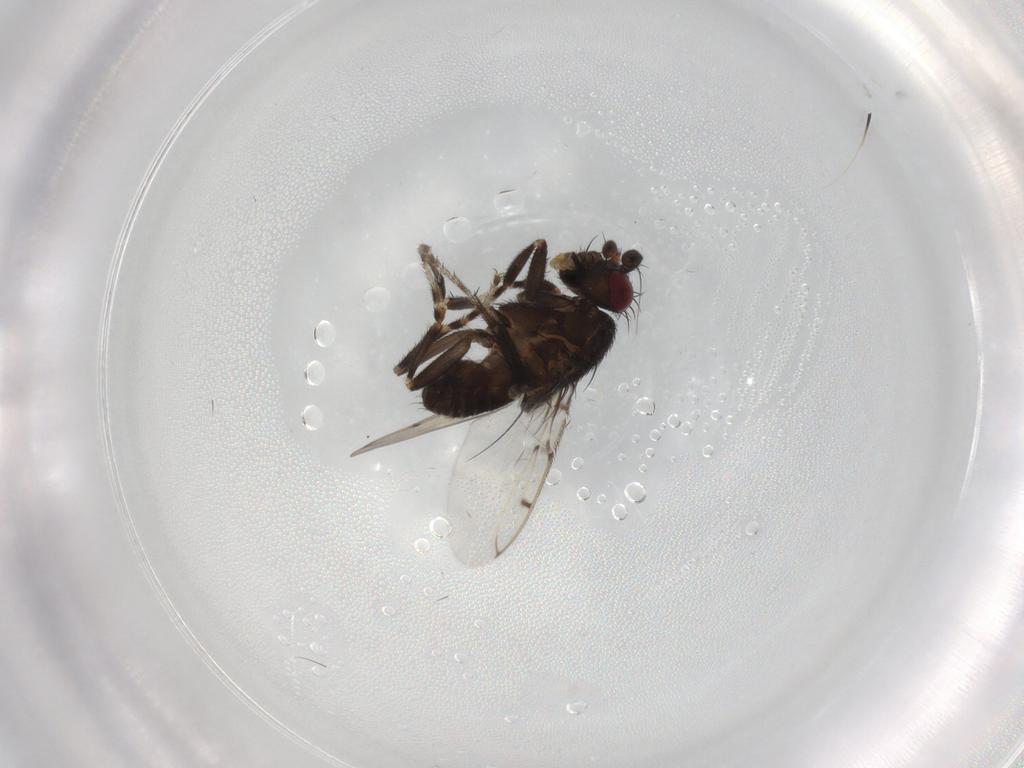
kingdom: Animalia
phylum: Arthropoda
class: Insecta
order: Diptera
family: Sphaeroceridae
